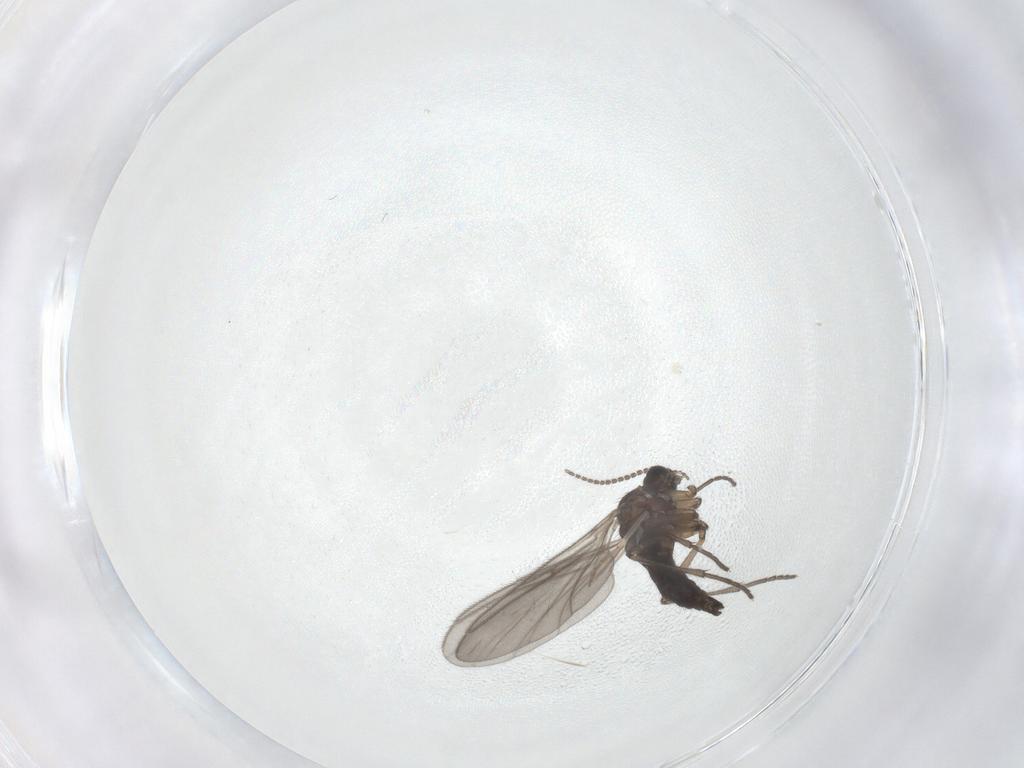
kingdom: Animalia
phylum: Arthropoda
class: Insecta
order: Diptera
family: Sciaridae
